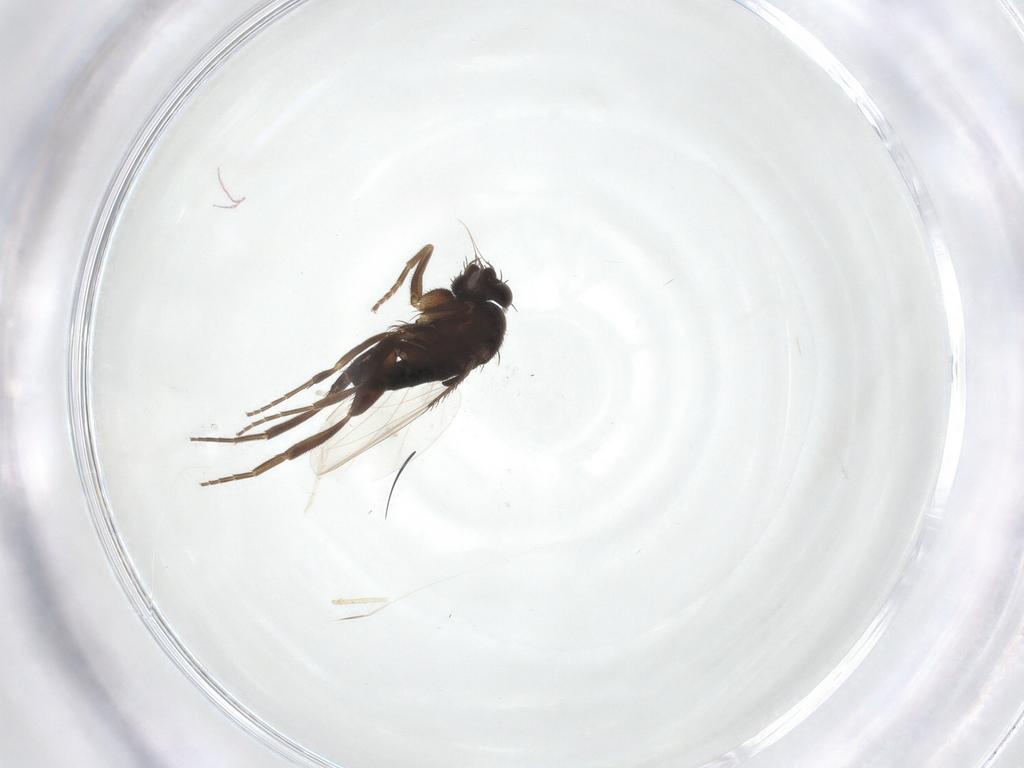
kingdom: Animalia
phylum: Arthropoda
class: Insecta
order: Diptera
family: Phoridae
